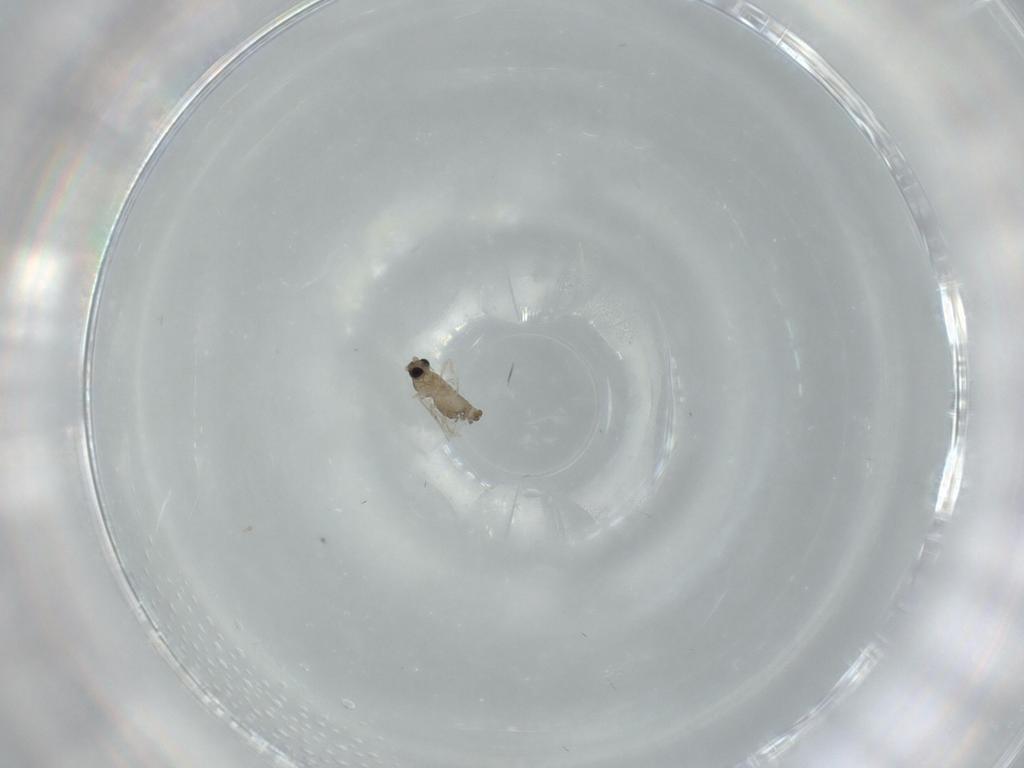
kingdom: Animalia
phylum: Arthropoda
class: Insecta
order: Diptera
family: Cecidomyiidae
